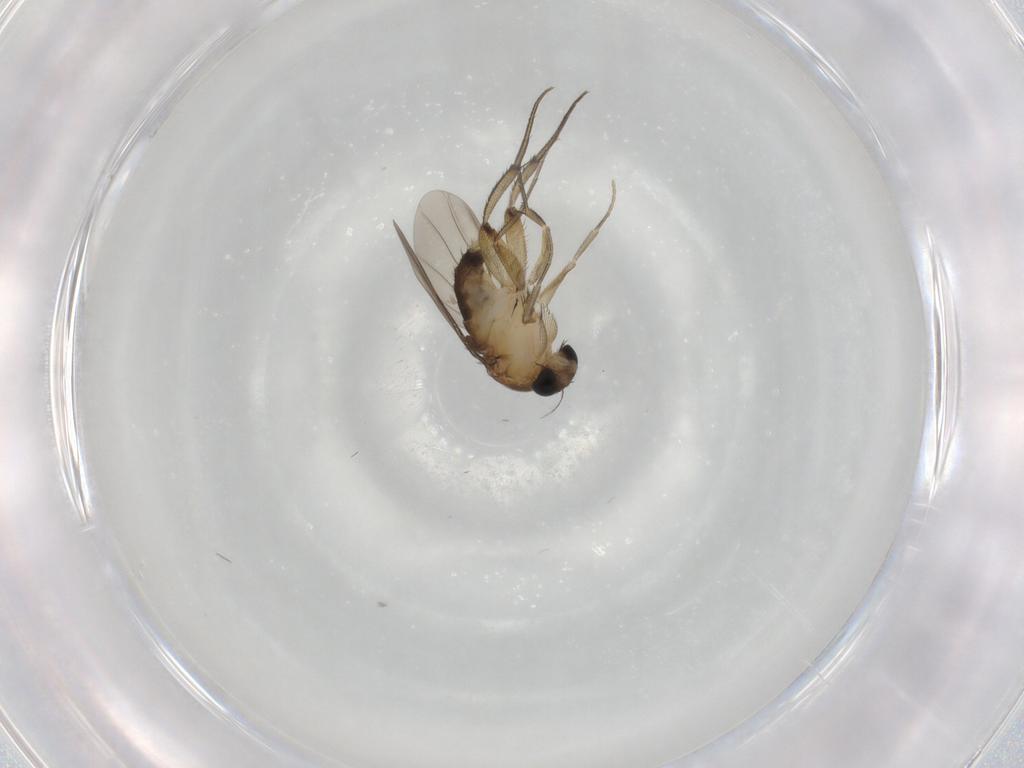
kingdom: Animalia
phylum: Arthropoda
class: Insecta
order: Diptera
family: Phoridae
